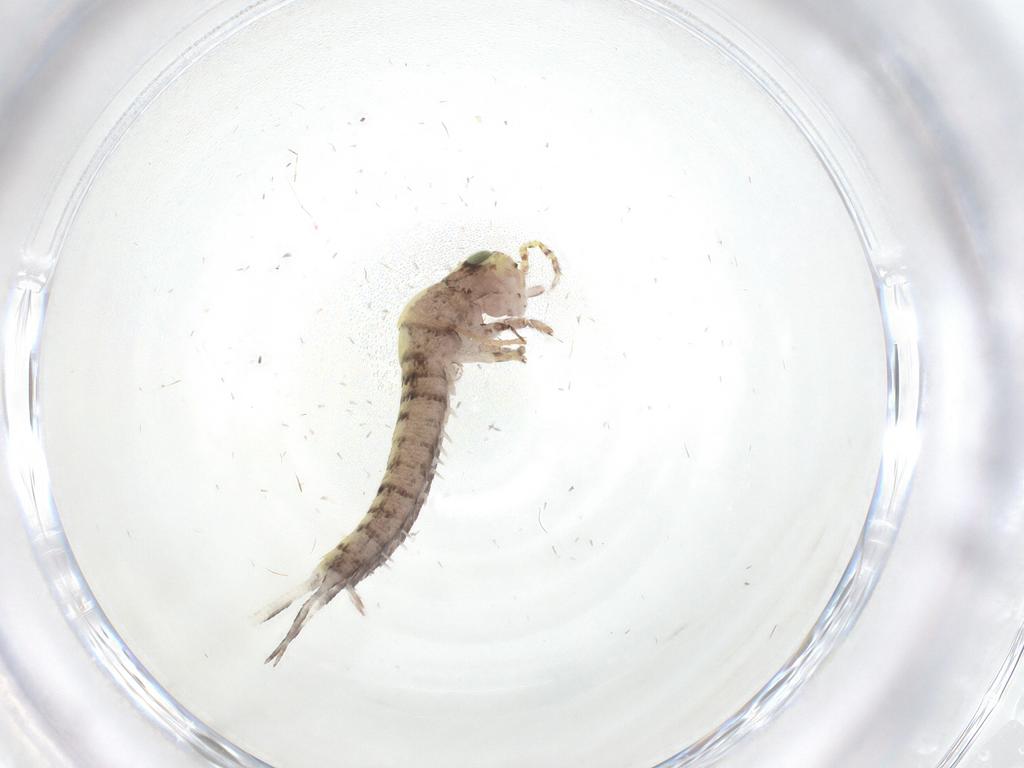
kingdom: Animalia
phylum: Arthropoda
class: Insecta
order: Archaeognatha
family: Machilidae
